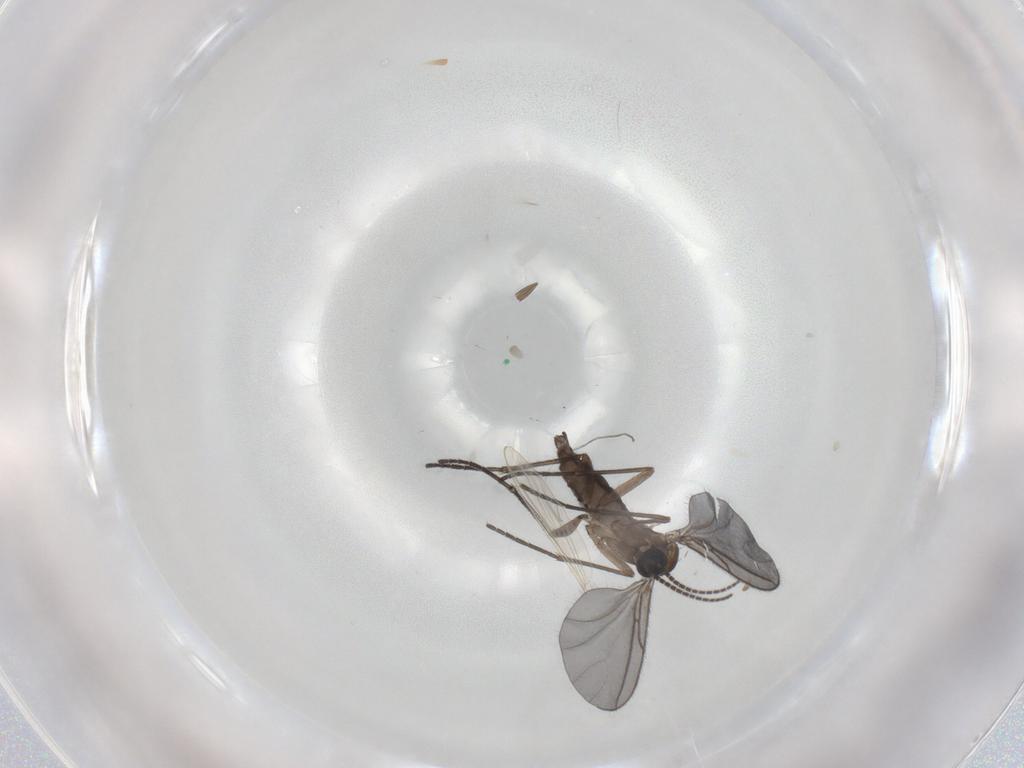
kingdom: Animalia
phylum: Arthropoda
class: Insecta
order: Diptera
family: Sciaridae
